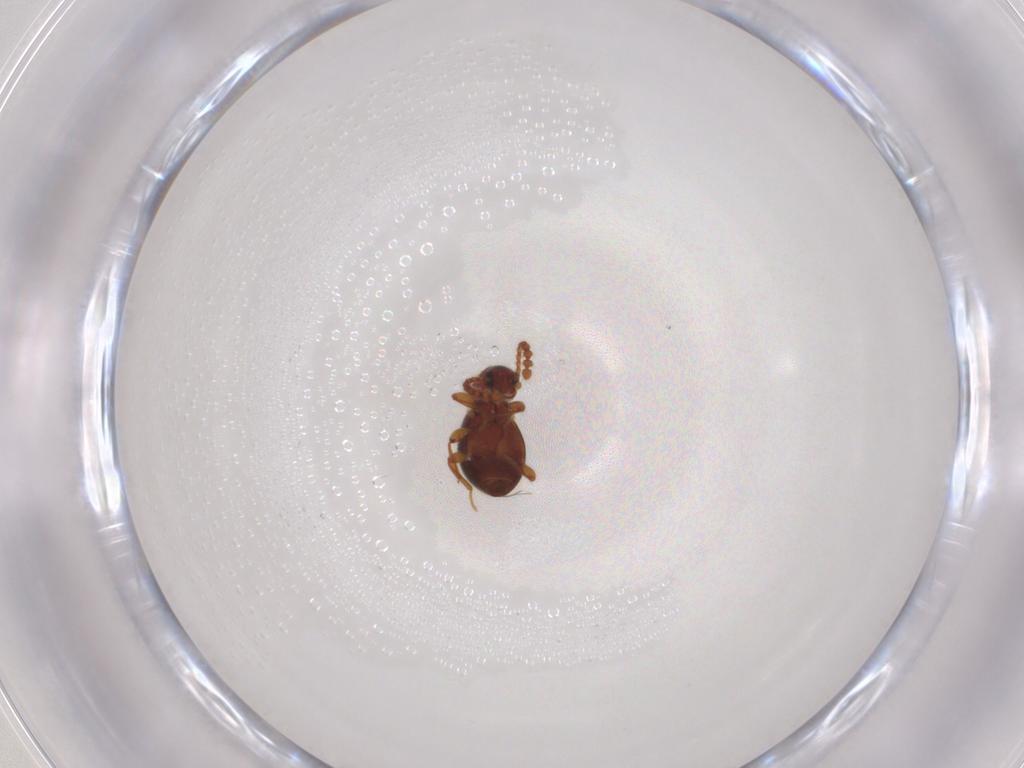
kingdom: Animalia
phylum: Arthropoda
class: Insecta
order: Coleoptera
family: Staphylinidae
